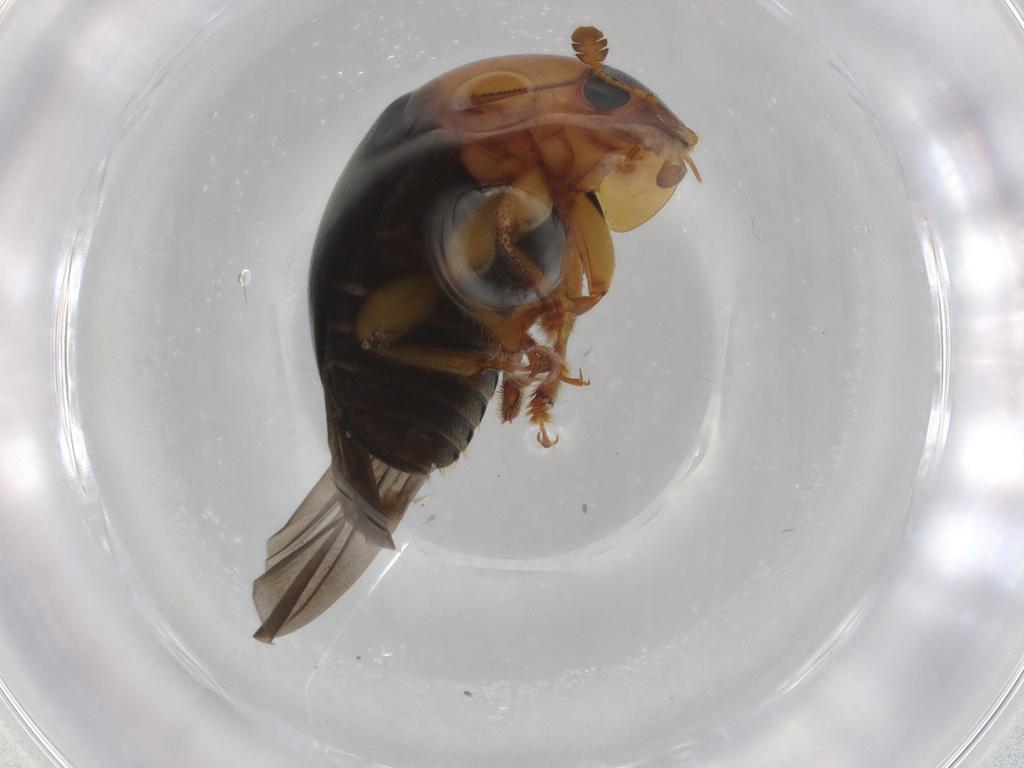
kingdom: Animalia
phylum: Arthropoda
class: Insecta
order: Coleoptera
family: Nitidulidae
